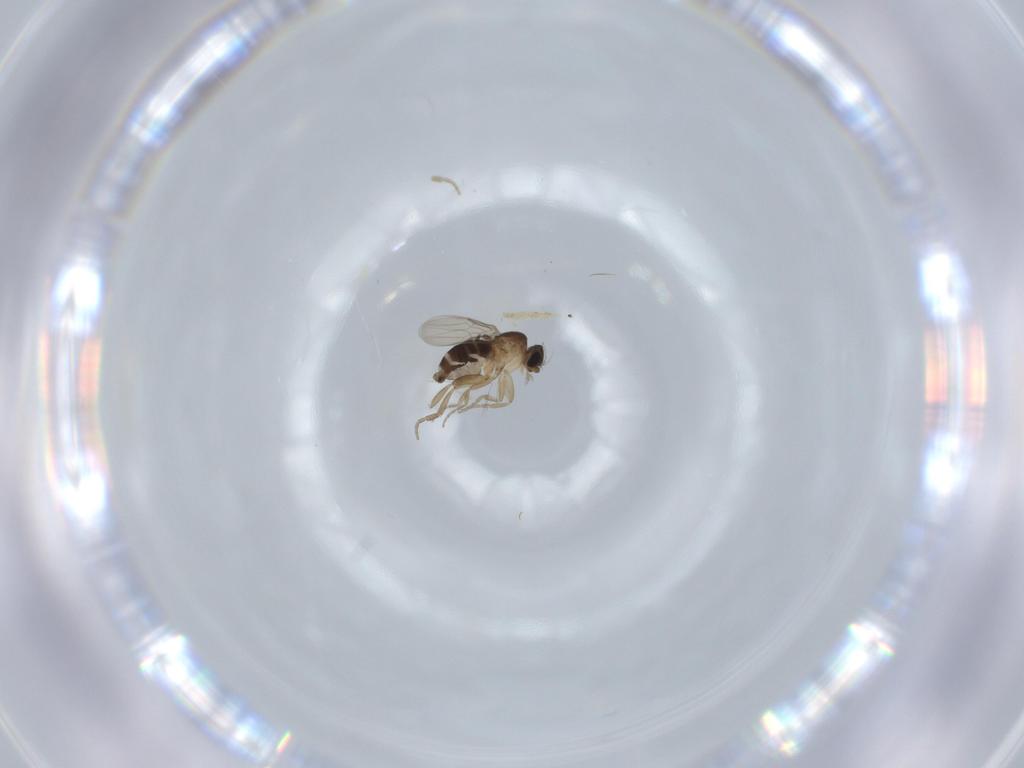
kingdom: Animalia
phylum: Arthropoda
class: Insecta
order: Diptera
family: Phoridae
